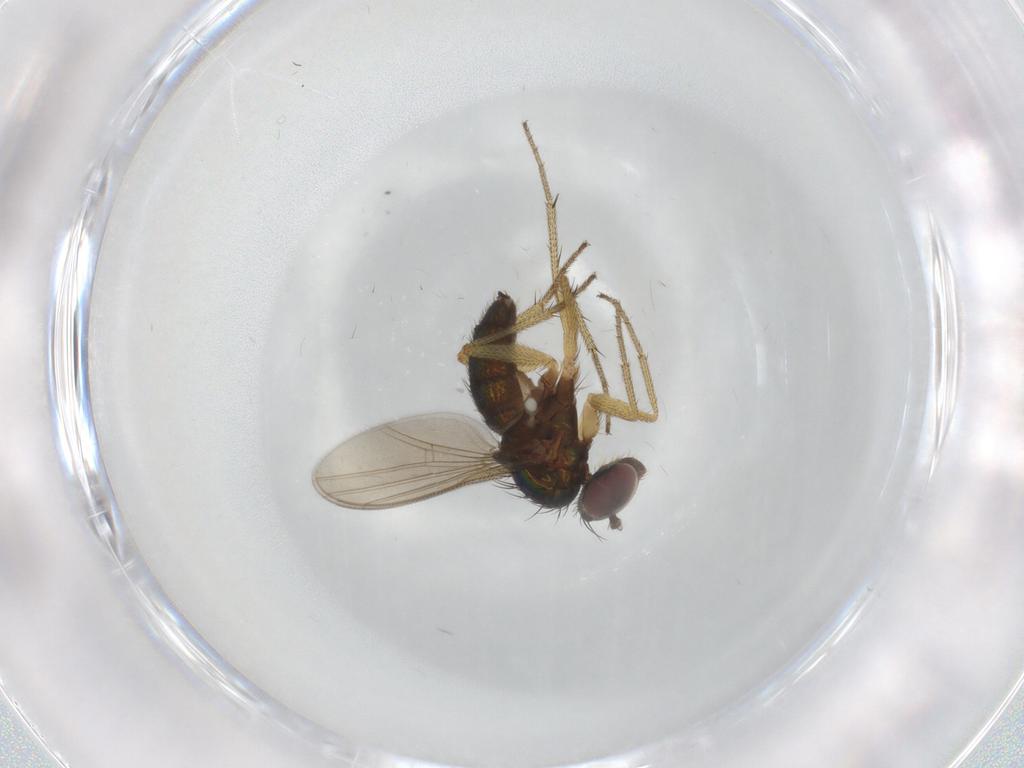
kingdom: Animalia
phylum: Arthropoda
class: Insecta
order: Diptera
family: Dolichopodidae
